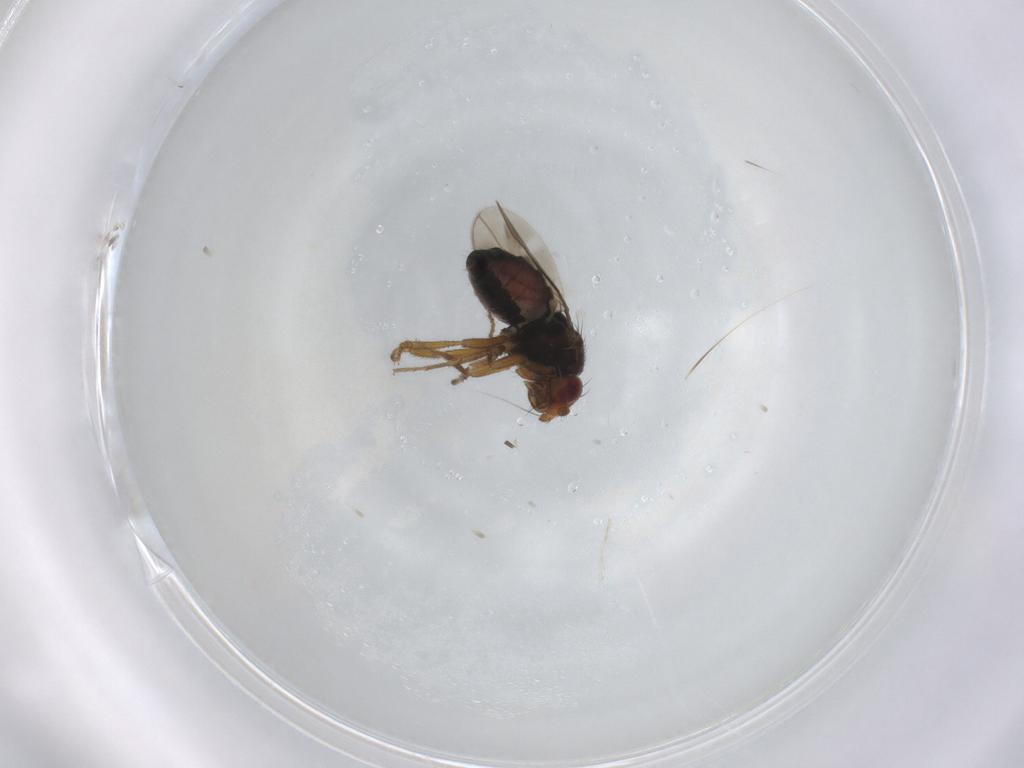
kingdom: Animalia
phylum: Arthropoda
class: Insecta
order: Diptera
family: Sphaeroceridae
